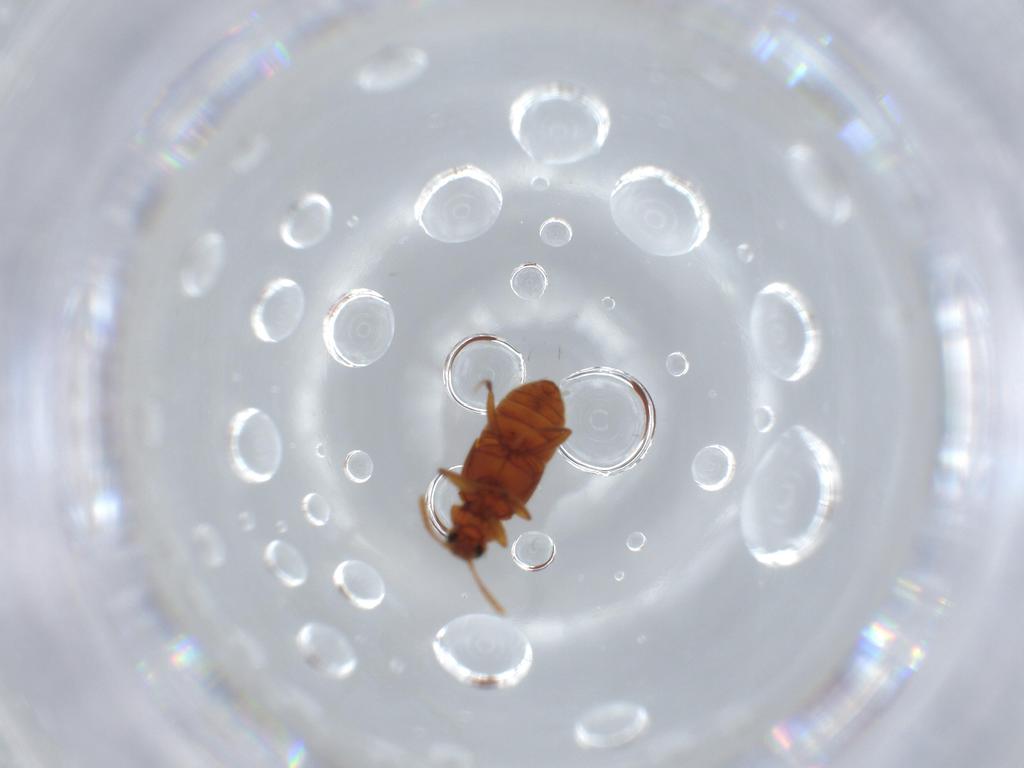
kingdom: Animalia
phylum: Arthropoda
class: Insecta
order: Coleoptera
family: Staphylinidae
